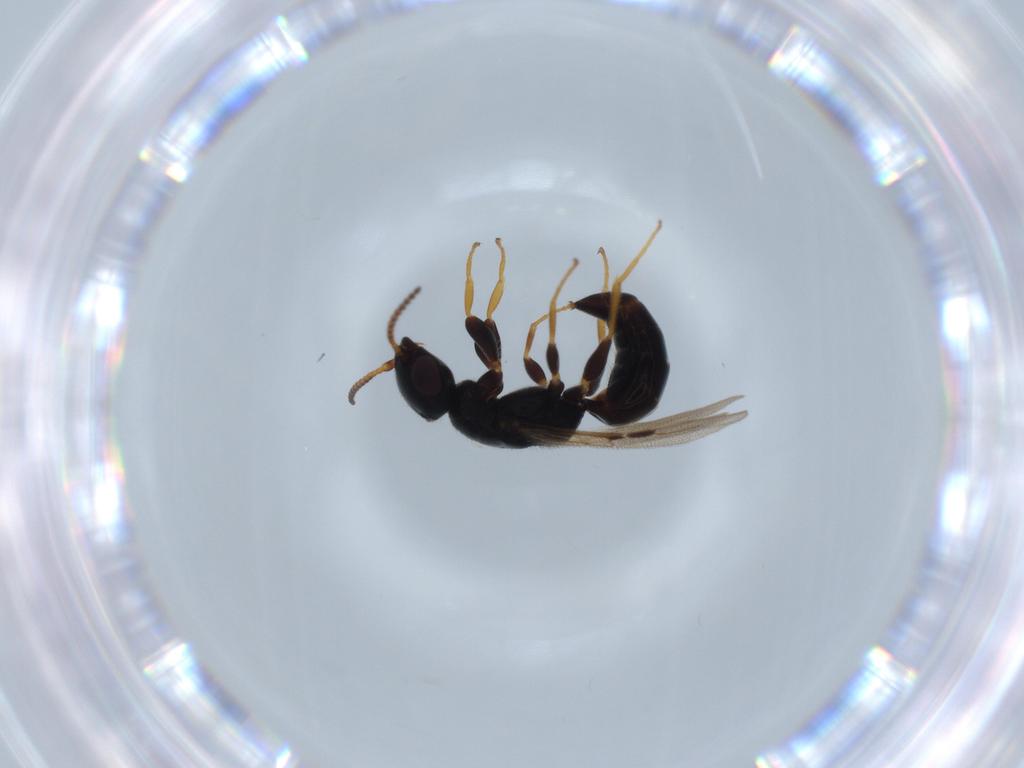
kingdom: Animalia
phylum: Arthropoda
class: Insecta
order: Hymenoptera
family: Bethylidae
